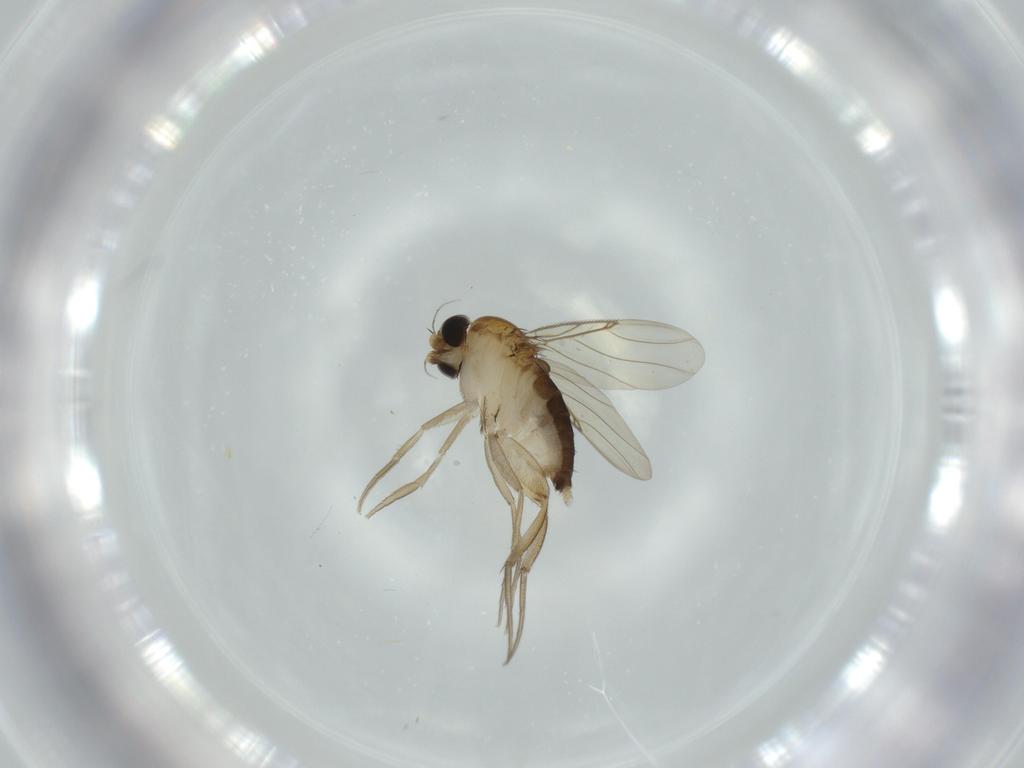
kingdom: Animalia
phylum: Arthropoda
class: Insecta
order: Diptera
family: Phoridae
